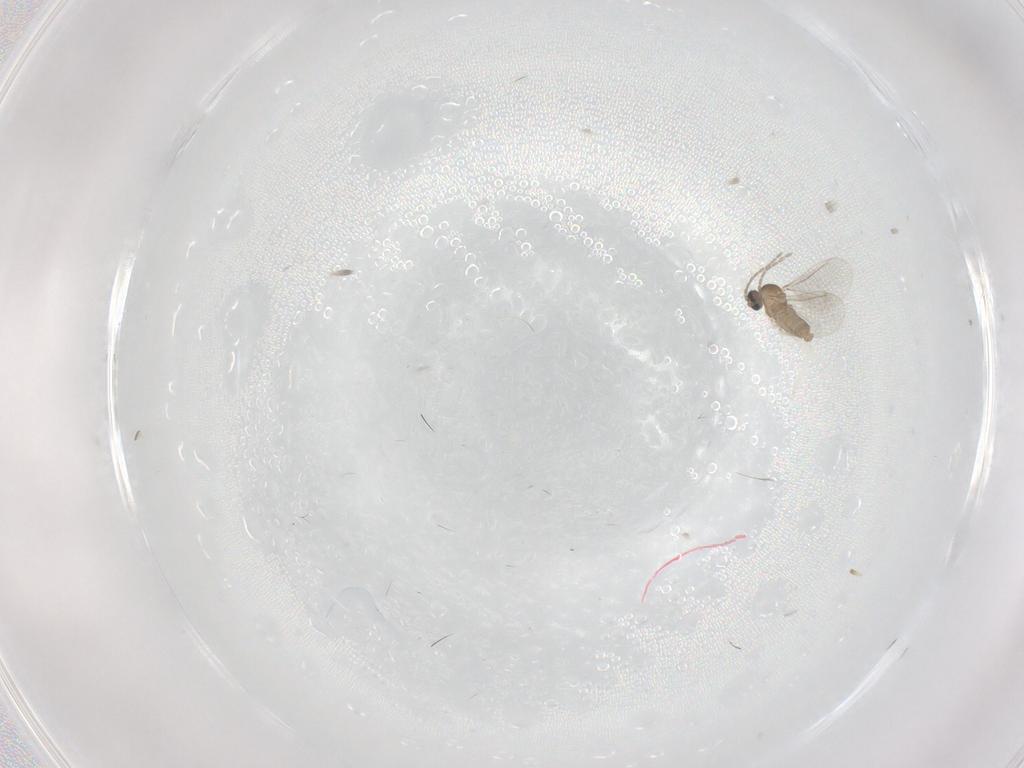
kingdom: Animalia
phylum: Arthropoda
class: Insecta
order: Diptera
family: Cecidomyiidae
